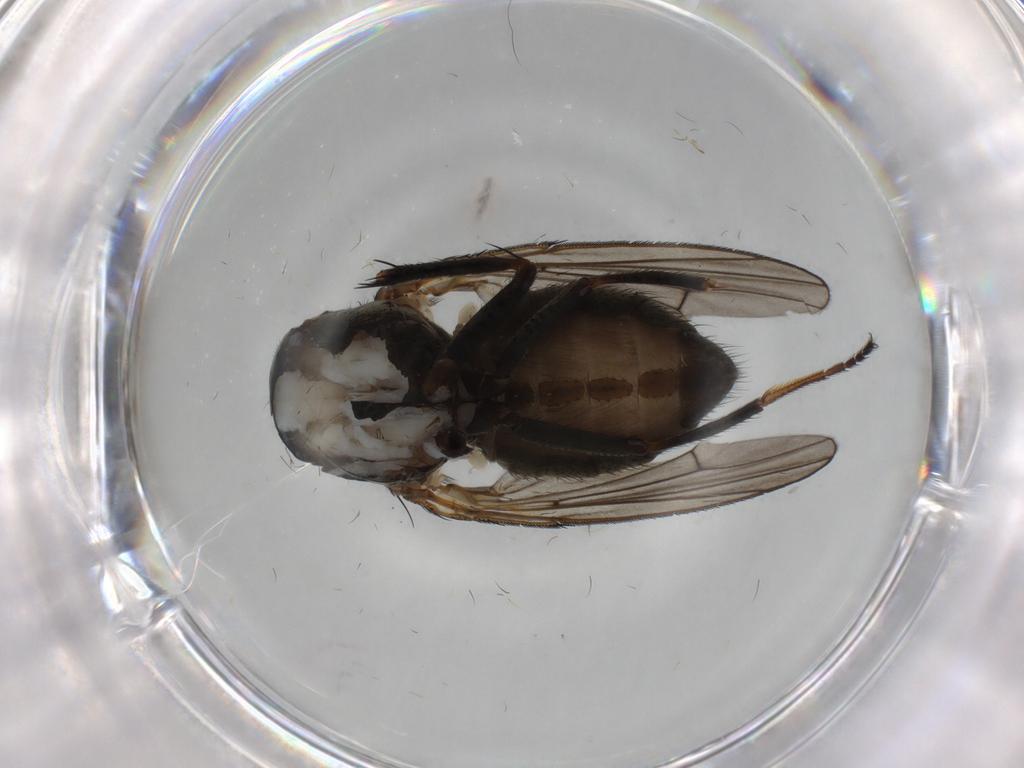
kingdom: Animalia
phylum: Arthropoda
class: Insecta
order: Diptera
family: Ephydridae
